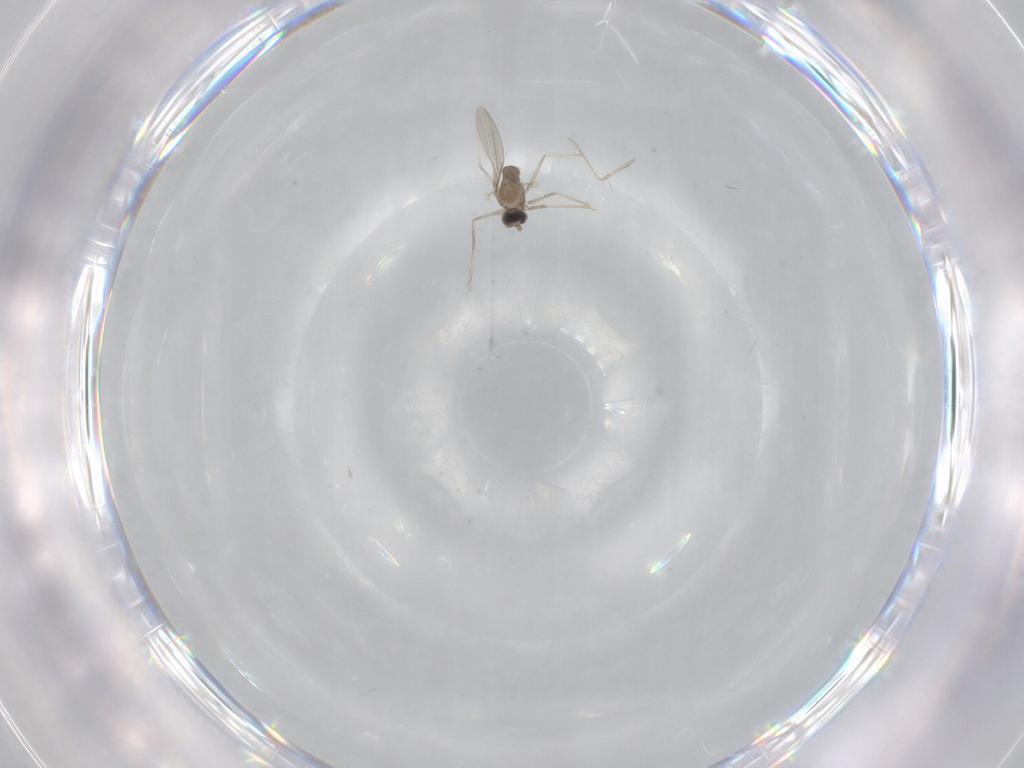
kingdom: Animalia
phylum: Arthropoda
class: Insecta
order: Diptera
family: Cecidomyiidae
